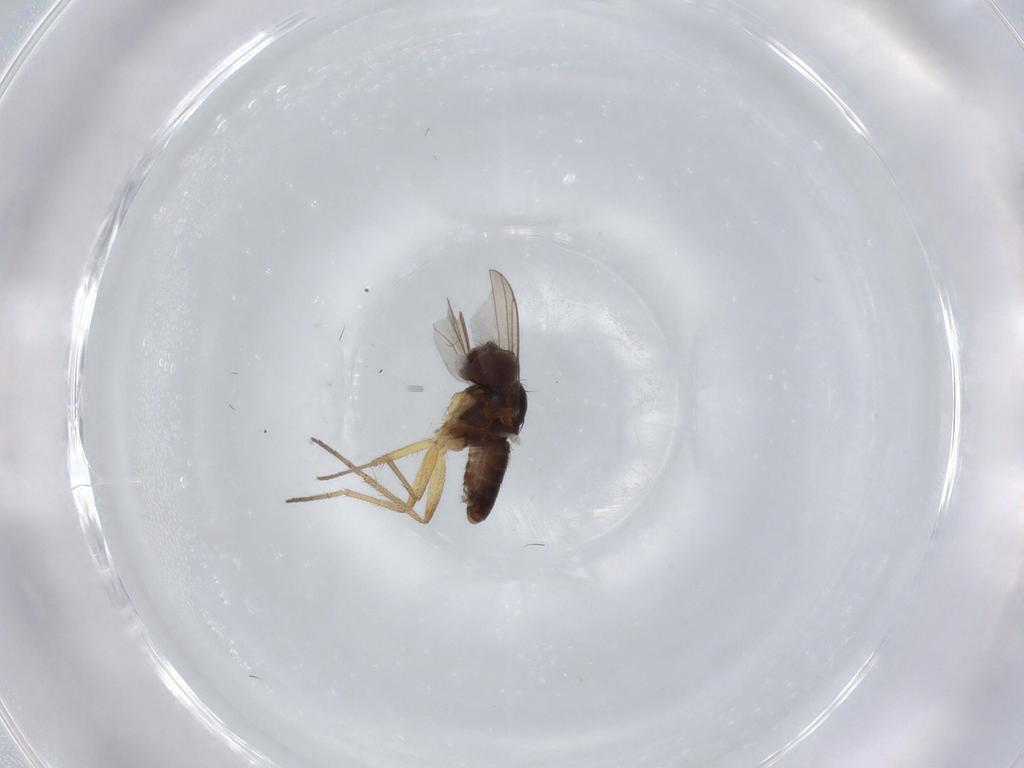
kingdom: Animalia
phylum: Arthropoda
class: Insecta
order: Diptera
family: Dolichopodidae
